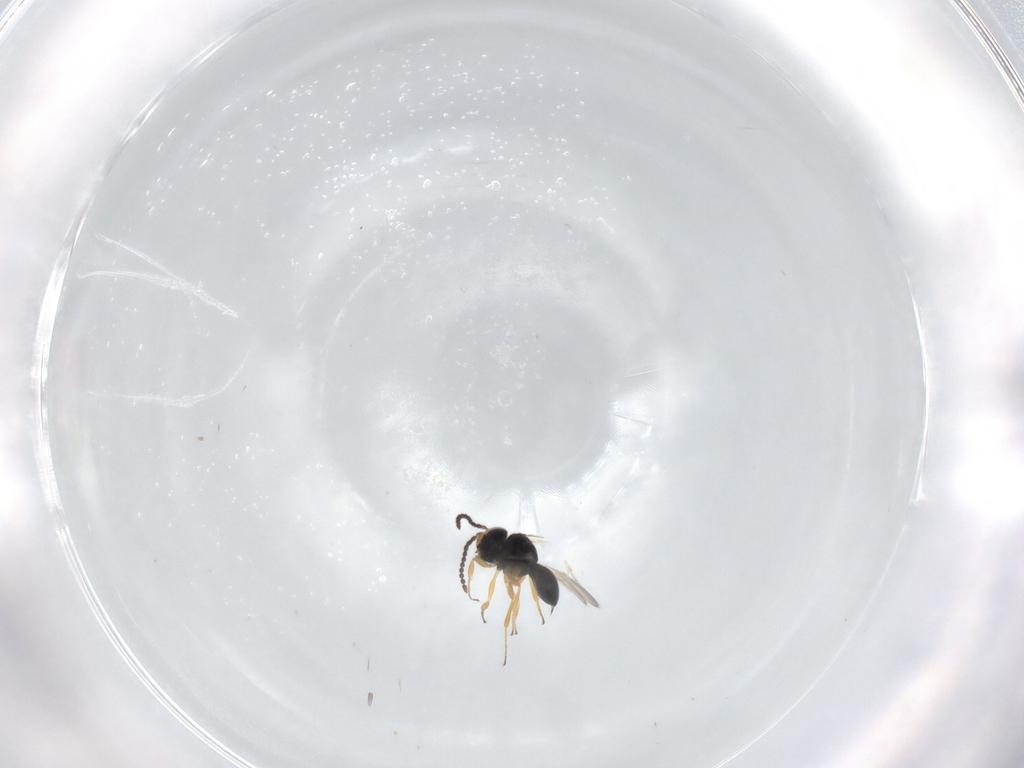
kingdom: Animalia
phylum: Arthropoda
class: Insecta
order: Hymenoptera
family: Scelionidae
